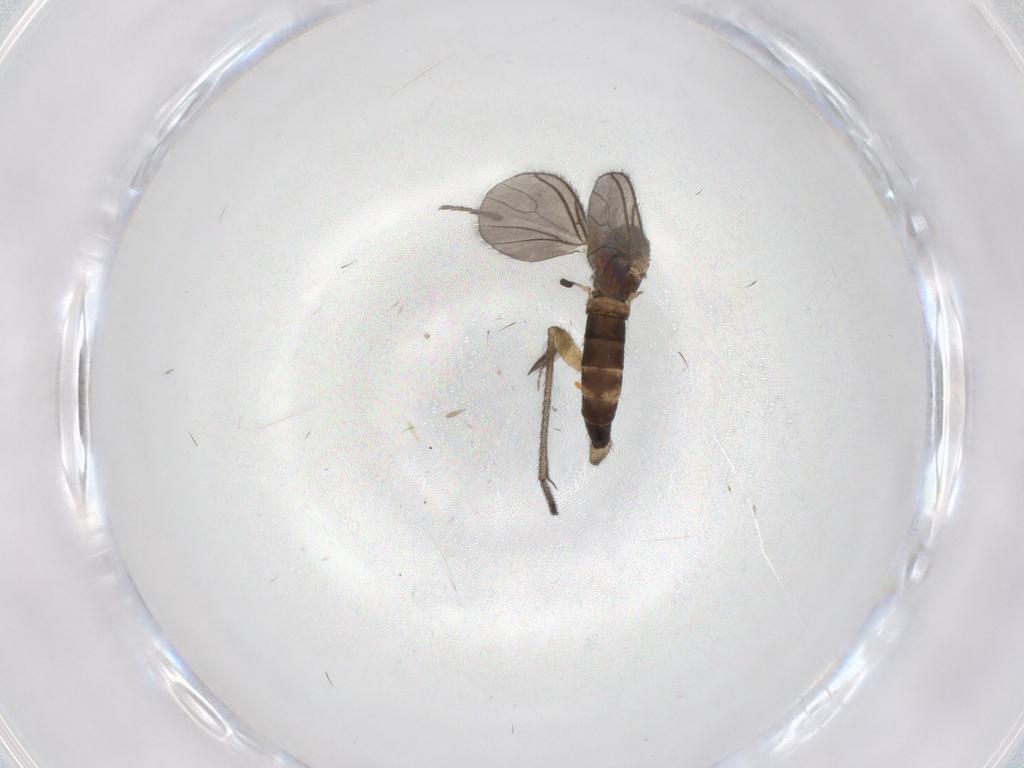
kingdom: Animalia
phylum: Arthropoda
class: Insecta
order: Diptera
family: Sciaridae
